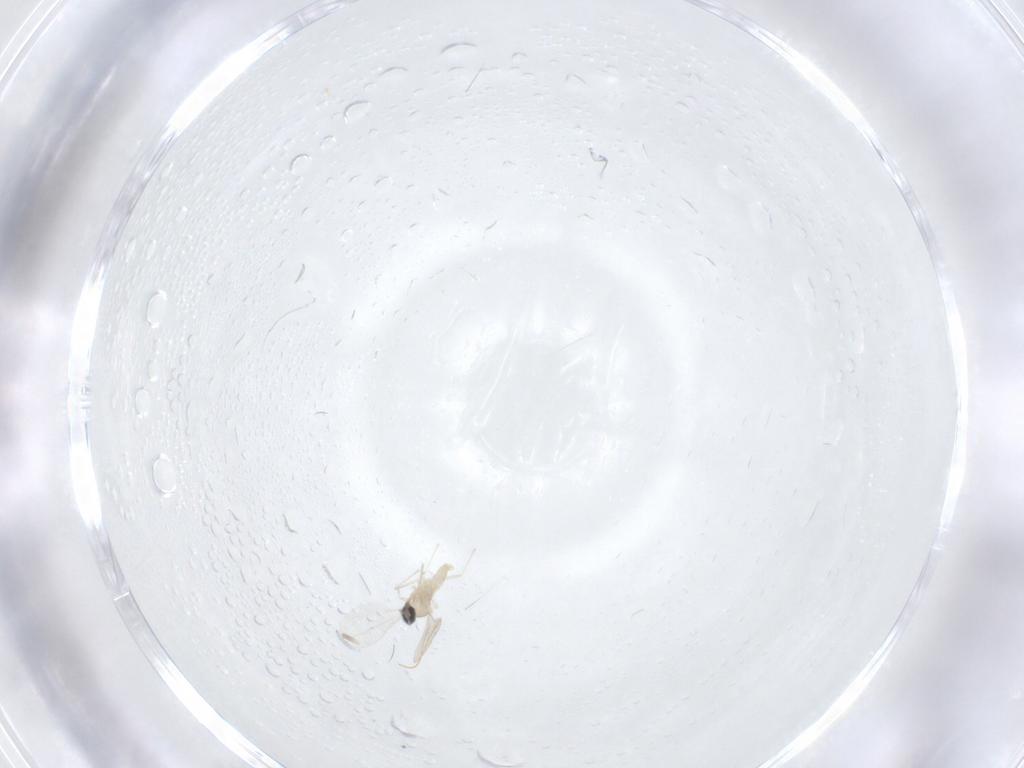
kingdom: Animalia
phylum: Arthropoda
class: Insecta
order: Diptera
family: Cecidomyiidae
